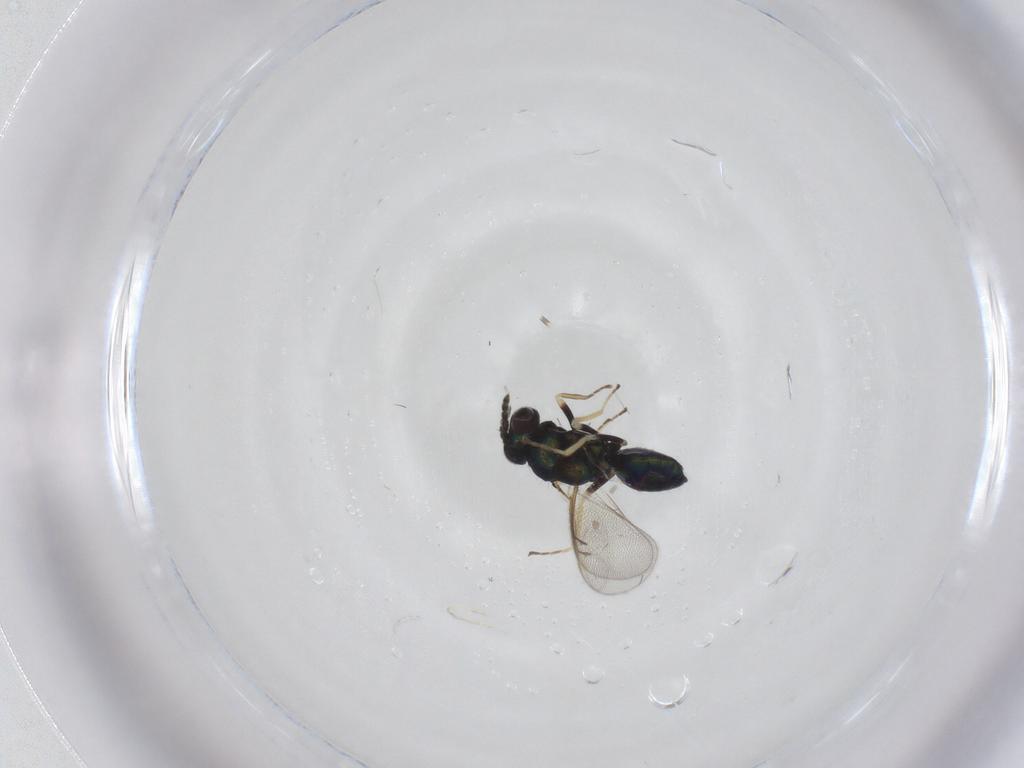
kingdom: Animalia
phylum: Arthropoda
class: Insecta
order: Hymenoptera
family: Eulophidae
